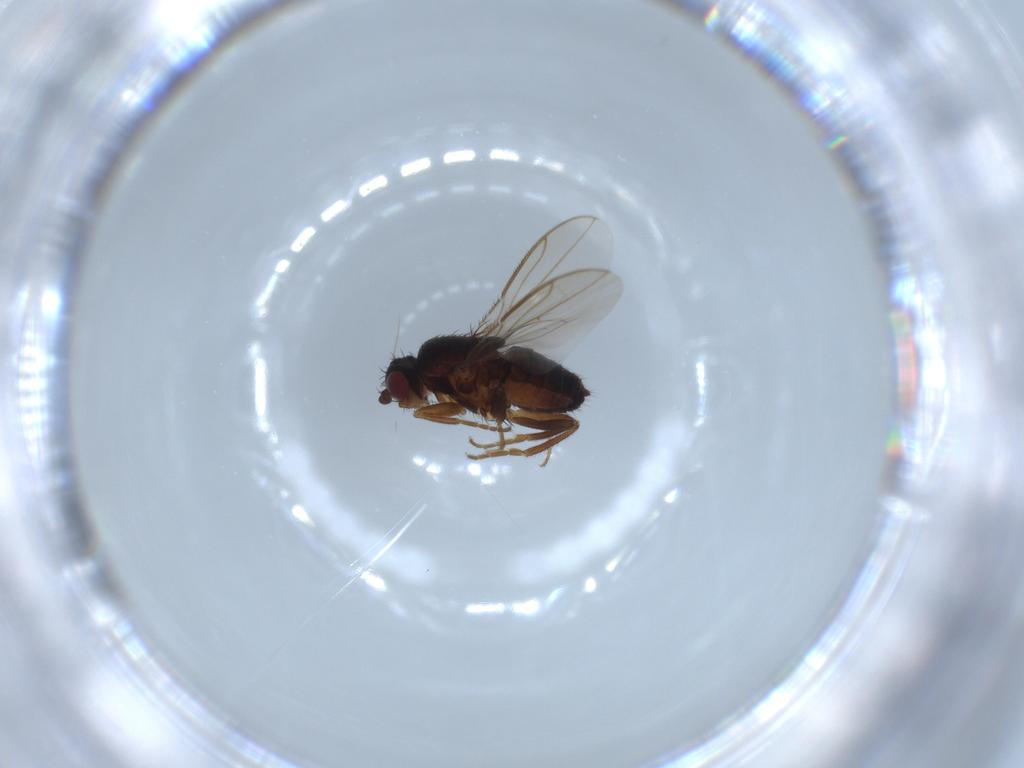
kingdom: Animalia
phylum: Arthropoda
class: Insecta
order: Diptera
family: Sphaeroceridae
